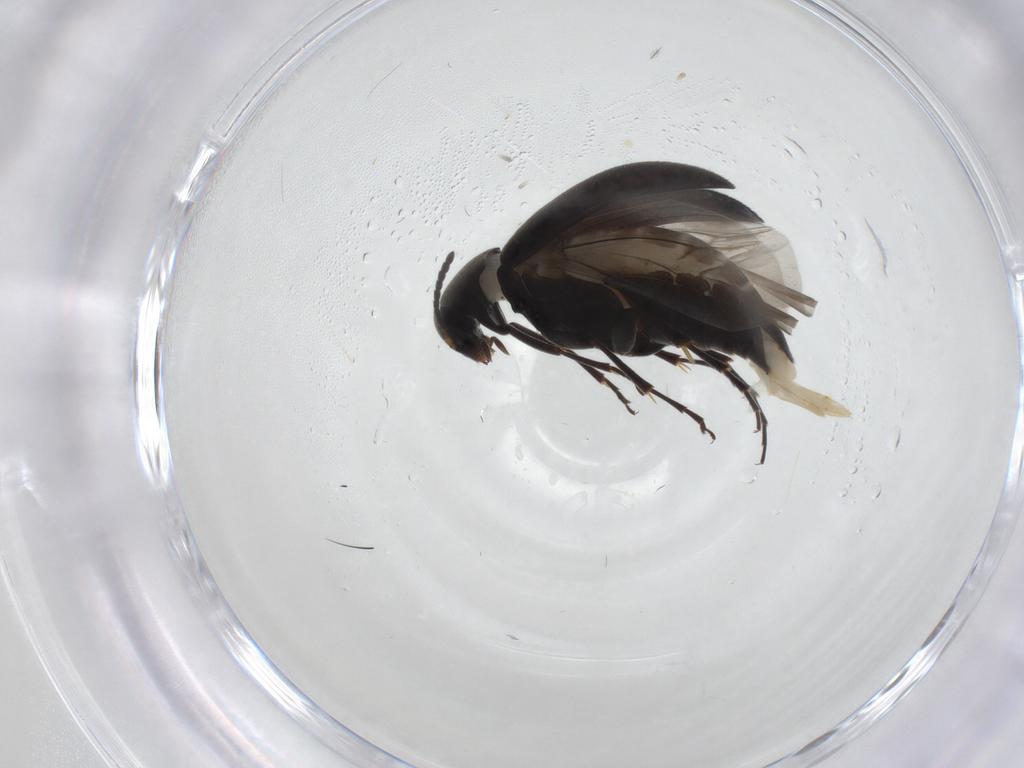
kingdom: Animalia
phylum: Arthropoda
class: Insecta
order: Coleoptera
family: Scraptiidae
